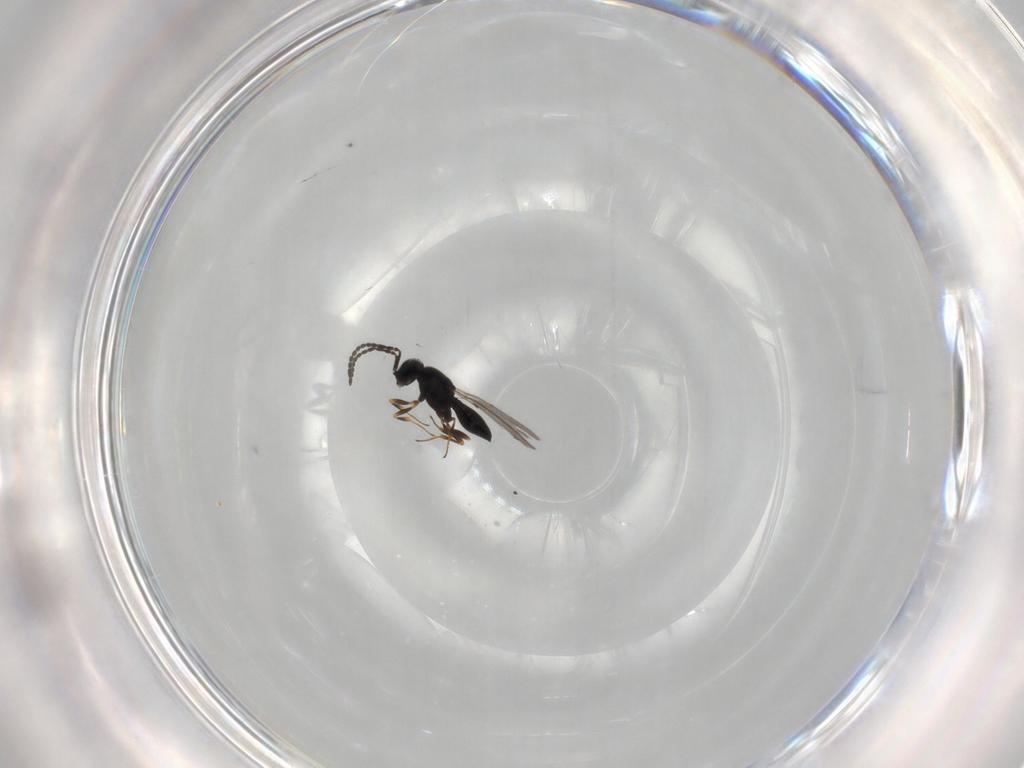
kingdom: Animalia
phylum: Arthropoda
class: Insecta
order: Hymenoptera
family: Scelionidae
